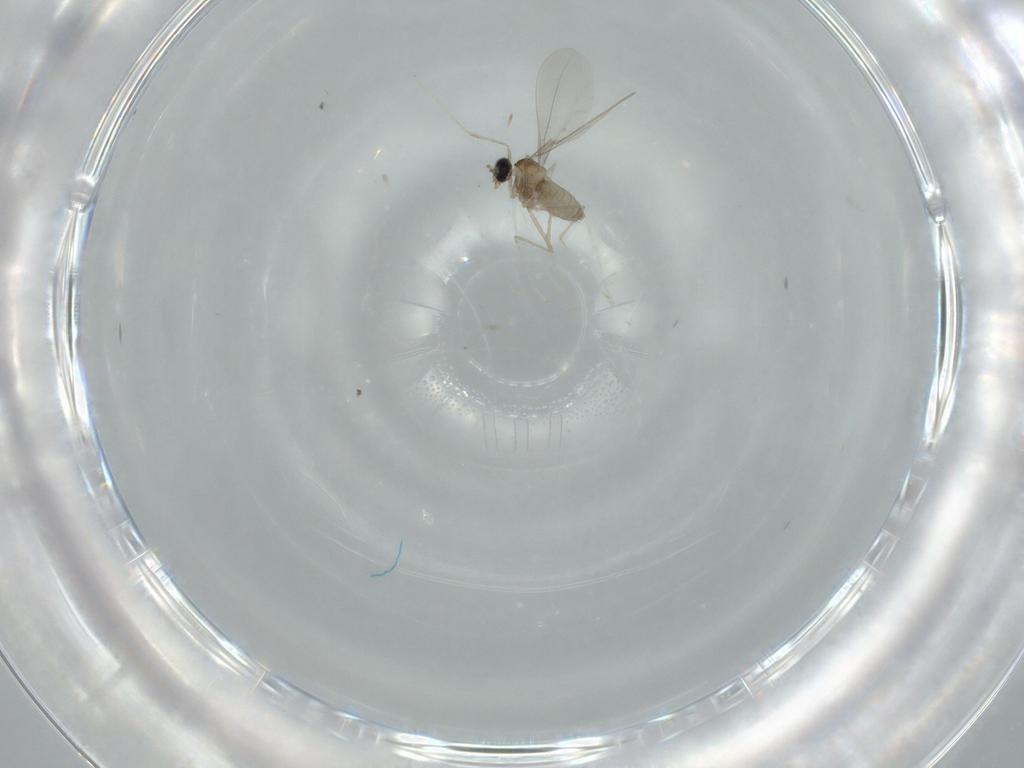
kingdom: Animalia
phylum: Arthropoda
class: Insecta
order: Diptera
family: Cecidomyiidae
